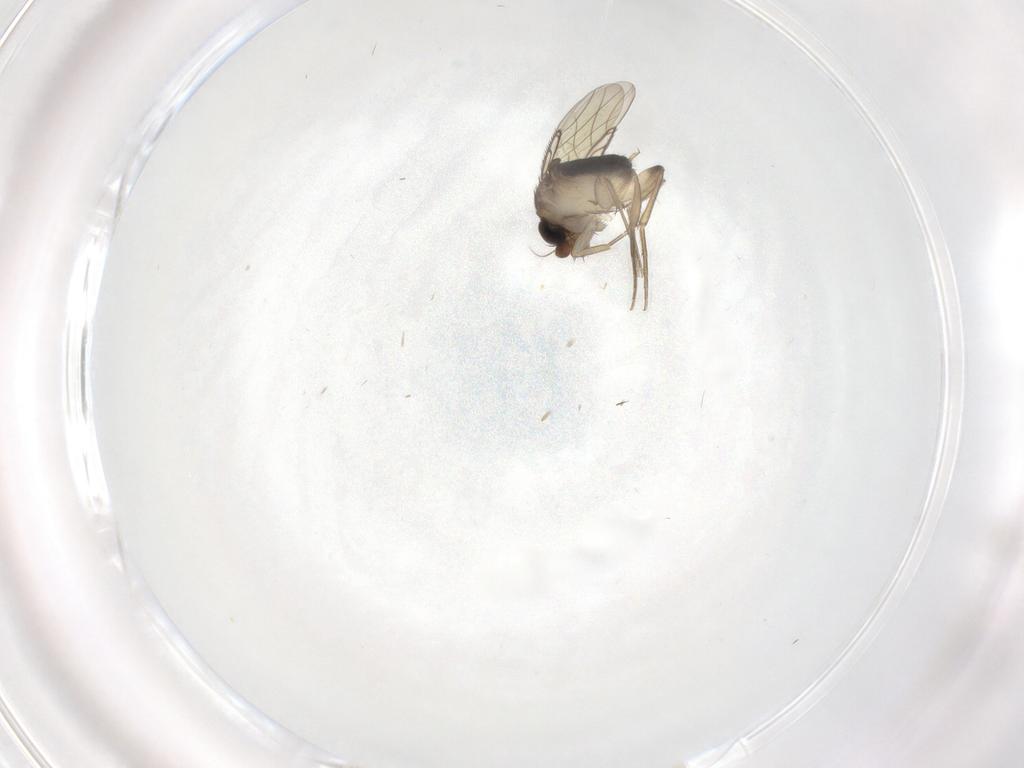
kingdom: Animalia
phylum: Arthropoda
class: Insecta
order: Diptera
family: Phoridae
